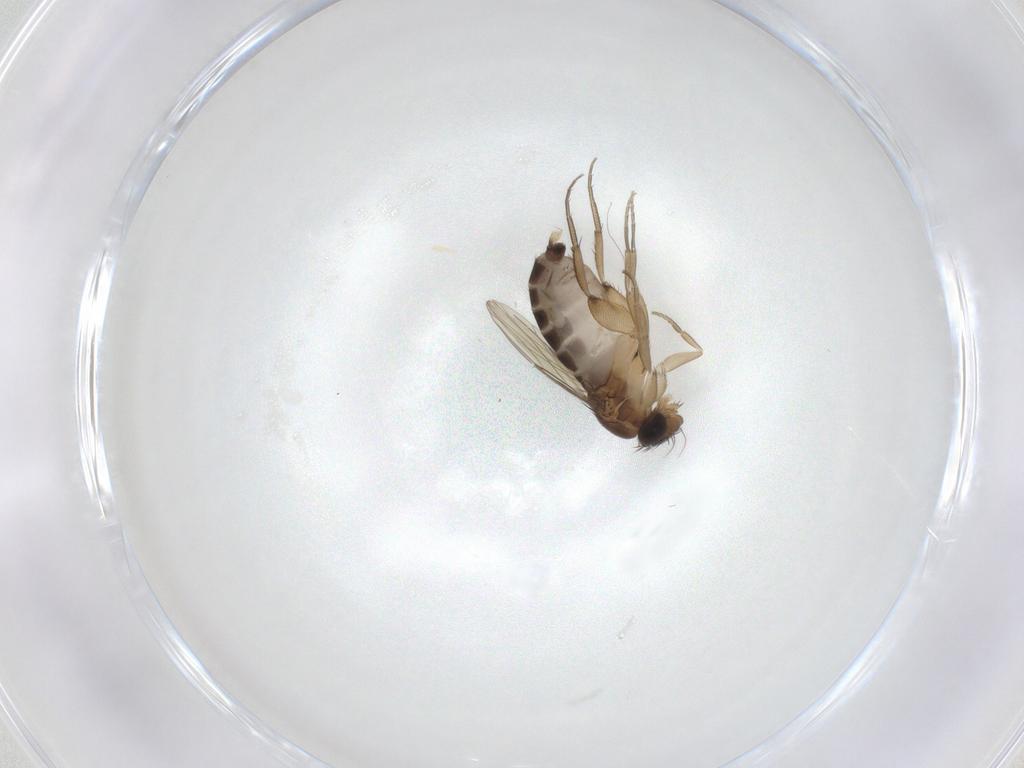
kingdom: Animalia
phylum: Arthropoda
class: Insecta
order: Diptera
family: Phoridae
